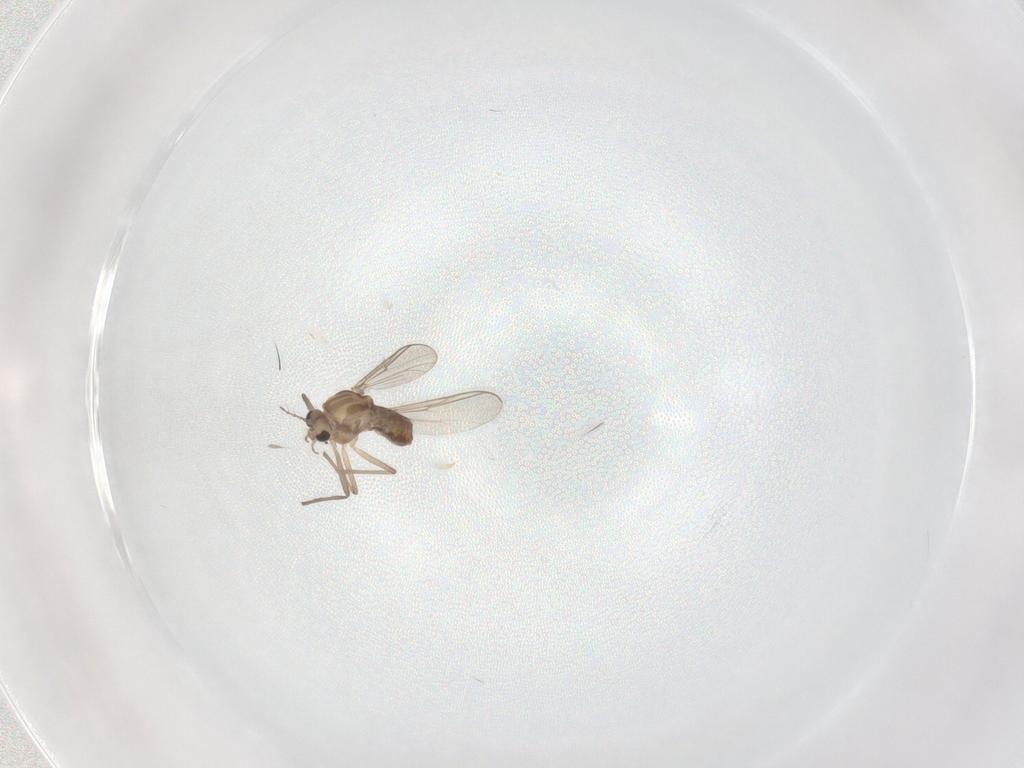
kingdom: Animalia
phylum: Arthropoda
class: Insecta
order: Diptera
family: Chironomidae
